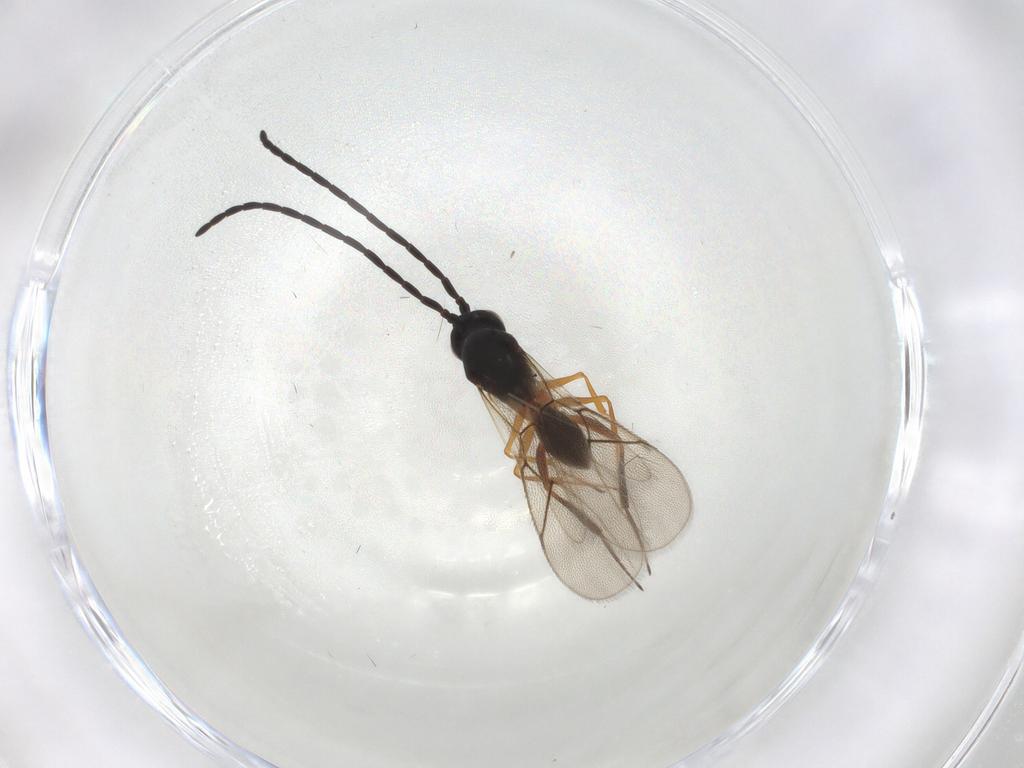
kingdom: Animalia
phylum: Arthropoda
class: Insecta
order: Hymenoptera
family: Figitidae
